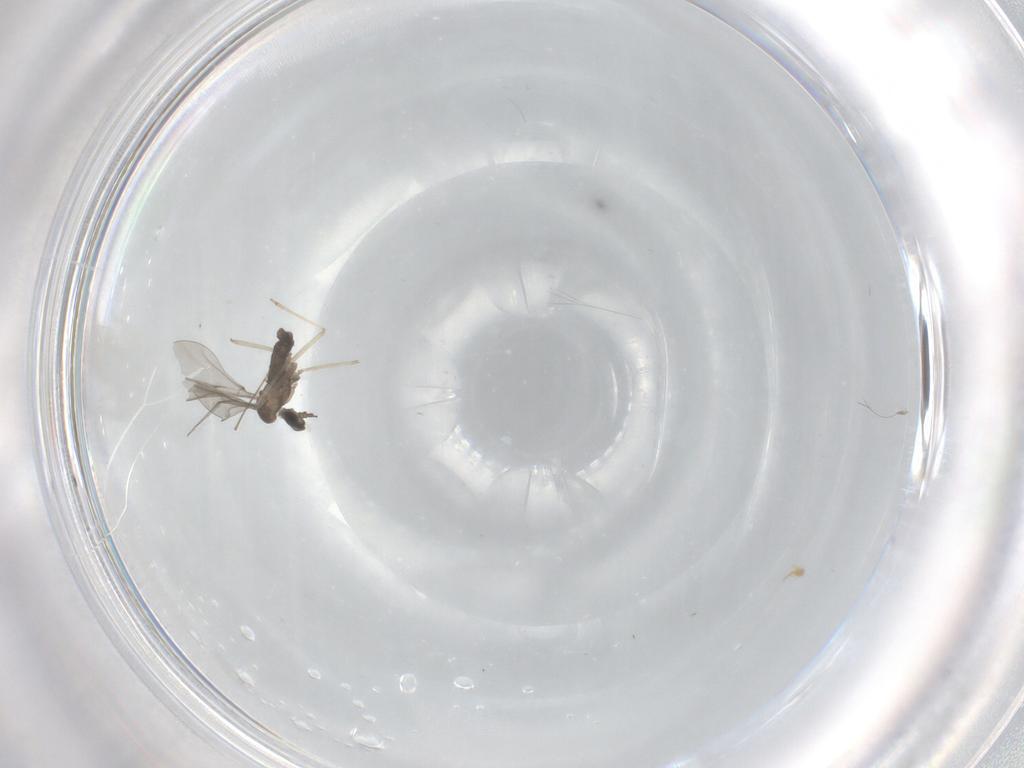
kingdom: Animalia
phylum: Arthropoda
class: Insecta
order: Diptera
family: Cecidomyiidae
